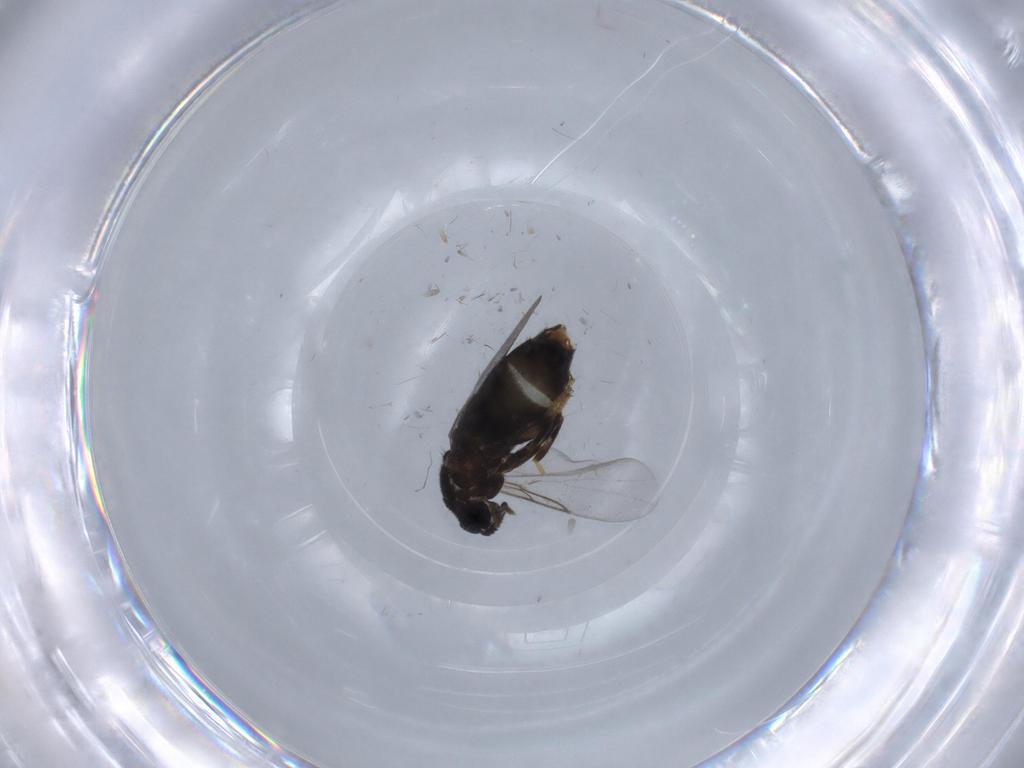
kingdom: Animalia
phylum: Arthropoda
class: Insecta
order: Diptera
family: Scatopsidae
